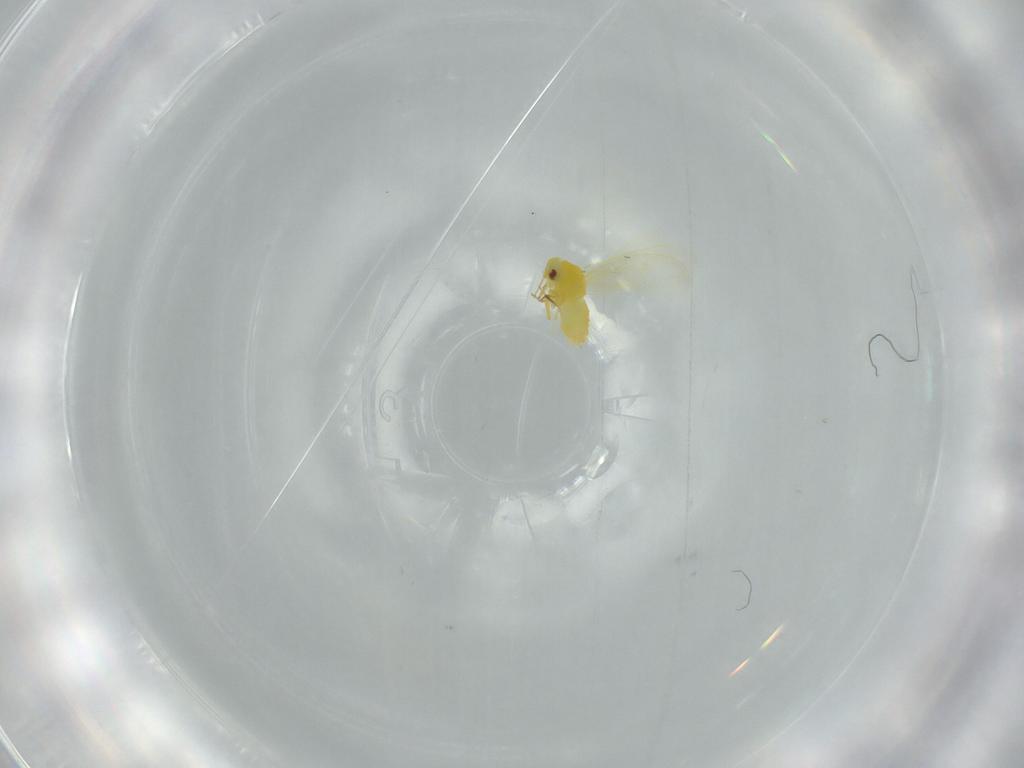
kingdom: Animalia
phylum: Arthropoda
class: Insecta
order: Hemiptera
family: Aleyrodidae
